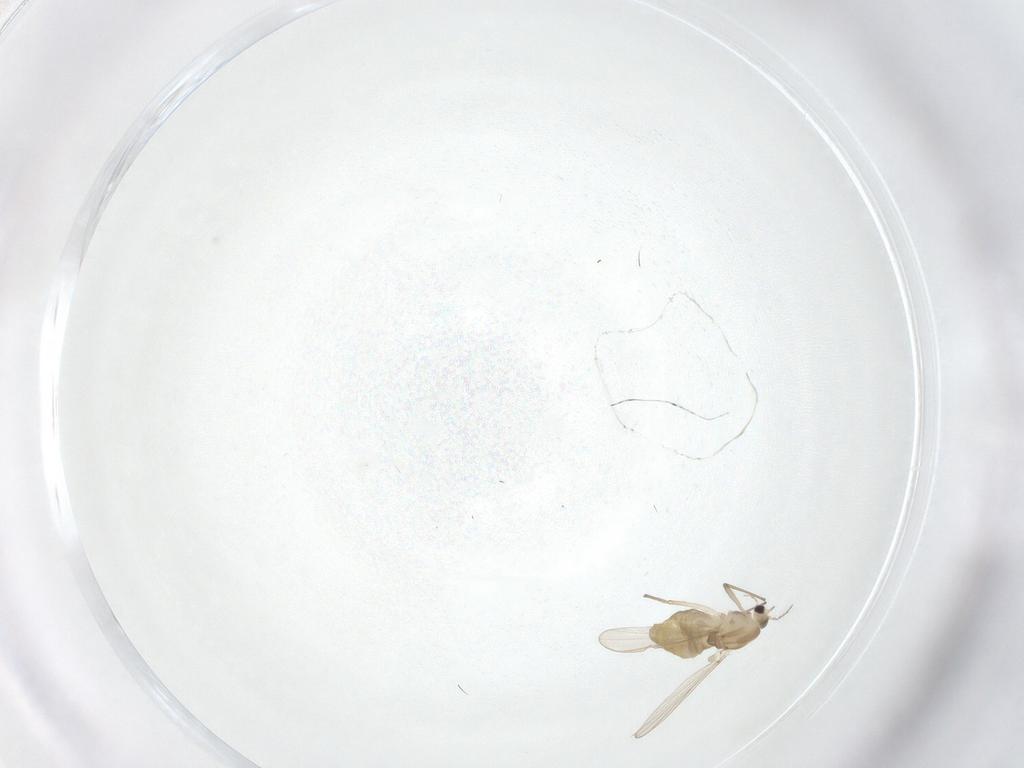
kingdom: Animalia
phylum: Arthropoda
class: Insecta
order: Diptera
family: Chironomidae
